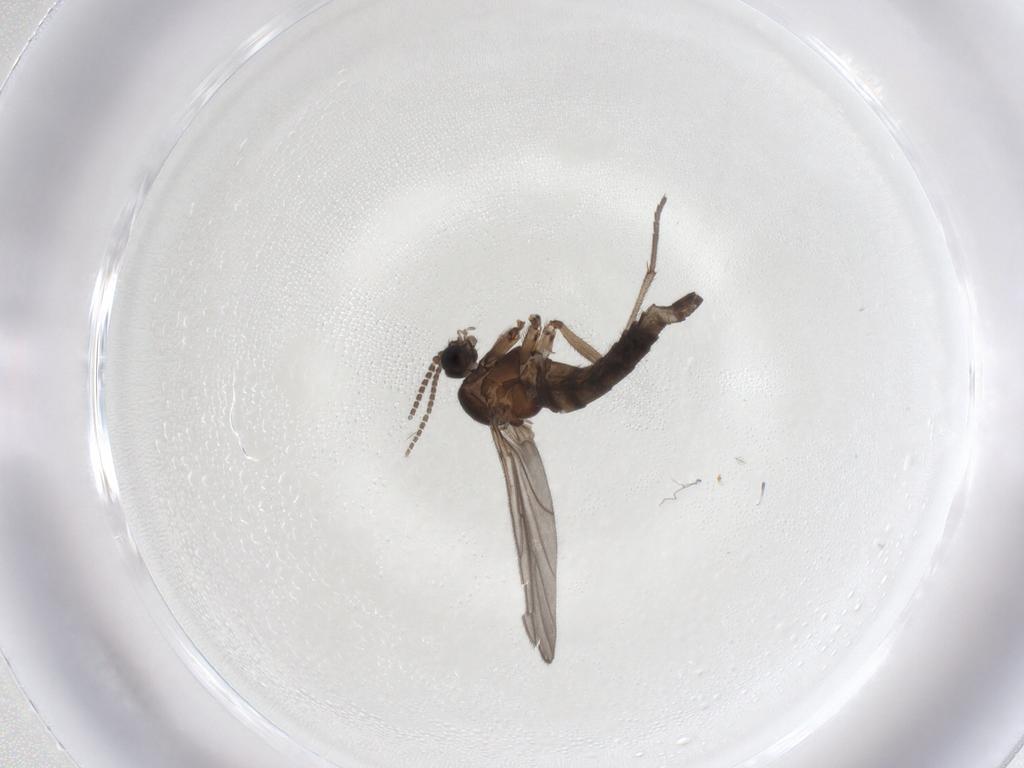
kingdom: Animalia
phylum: Arthropoda
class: Insecta
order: Diptera
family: Sciaridae
